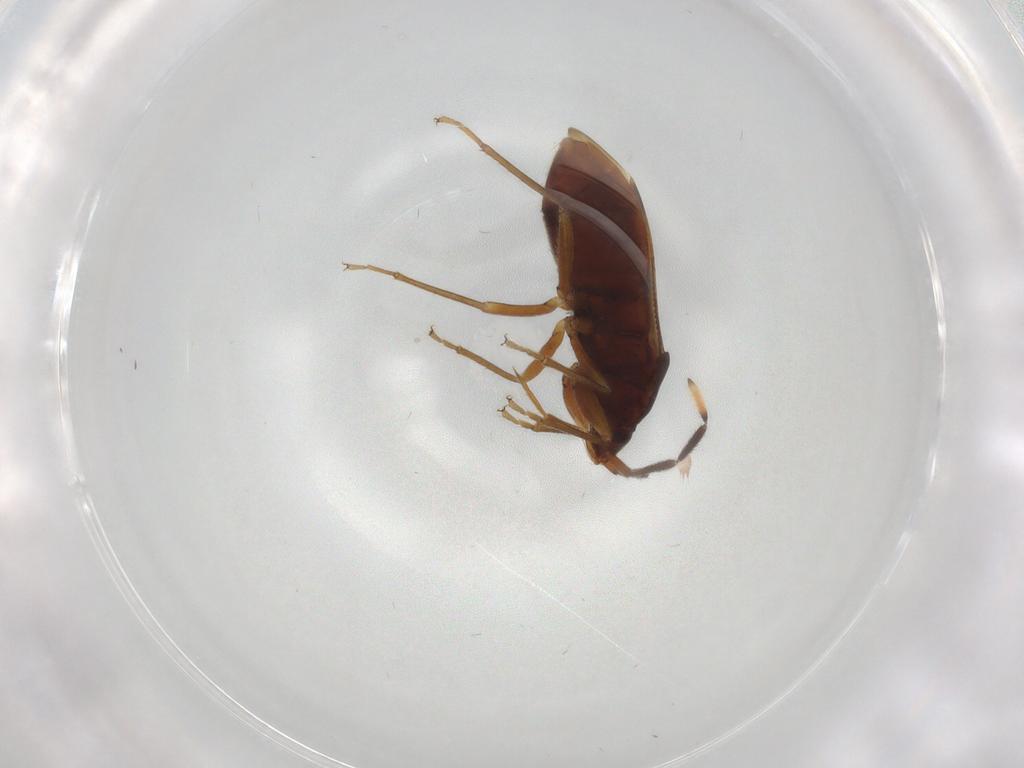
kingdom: Animalia
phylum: Arthropoda
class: Insecta
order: Hemiptera
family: Rhyparochromidae
